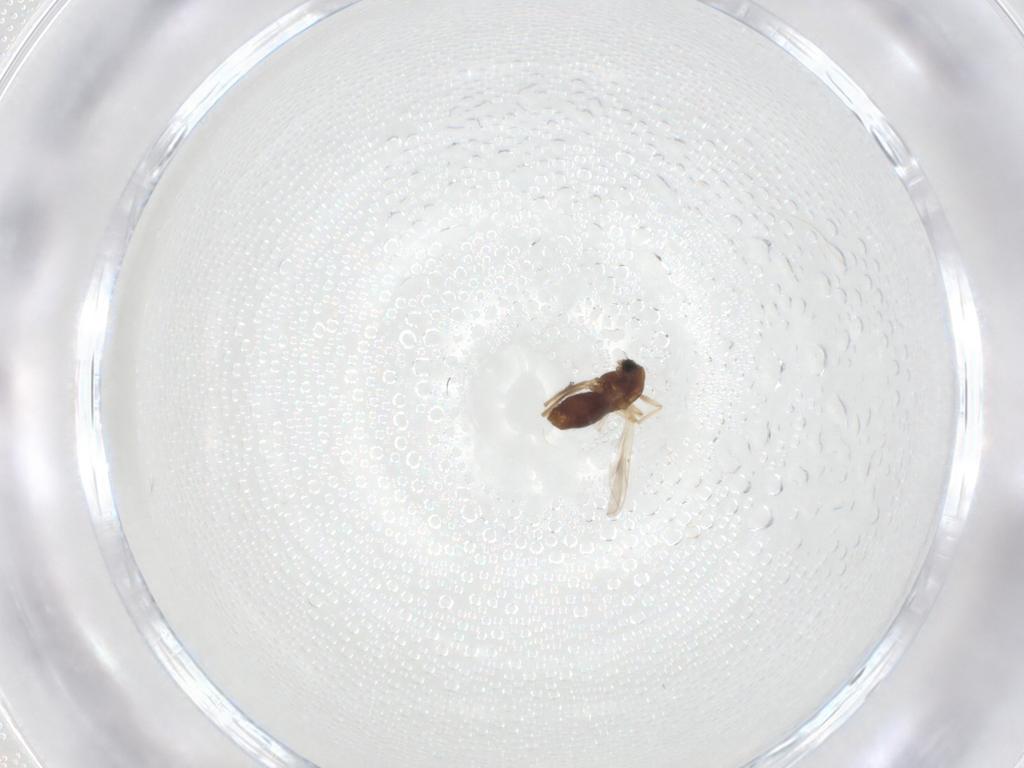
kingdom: Animalia
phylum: Arthropoda
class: Insecta
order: Diptera
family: Chironomidae
